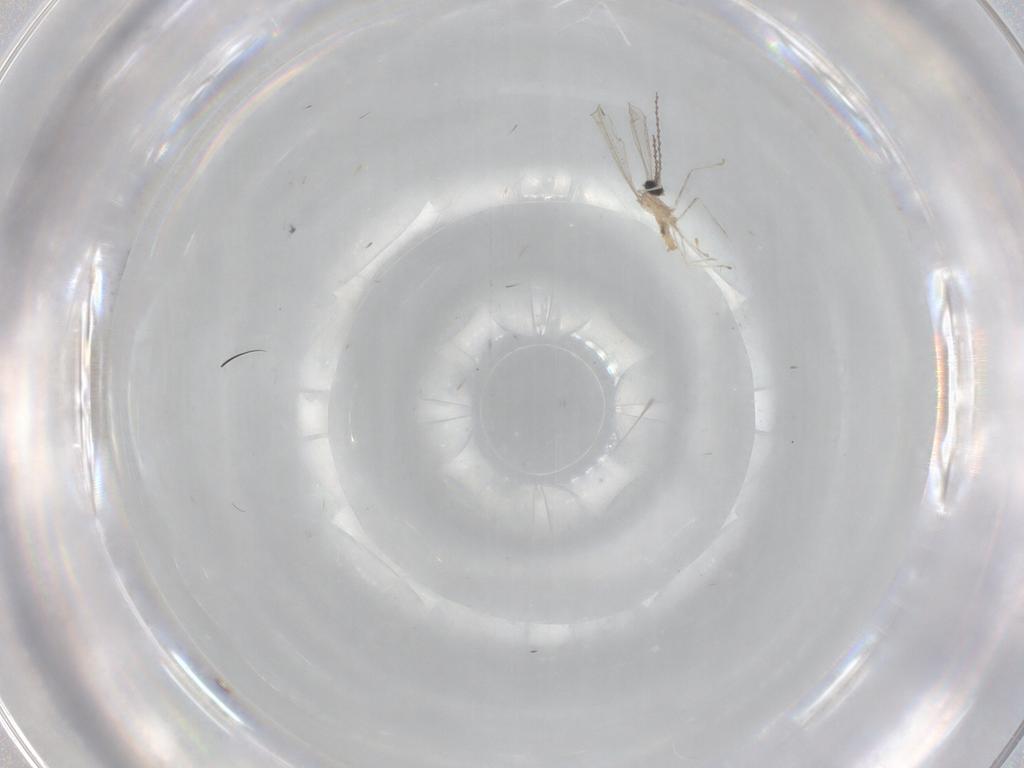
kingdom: Animalia
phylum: Arthropoda
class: Insecta
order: Diptera
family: Cecidomyiidae
